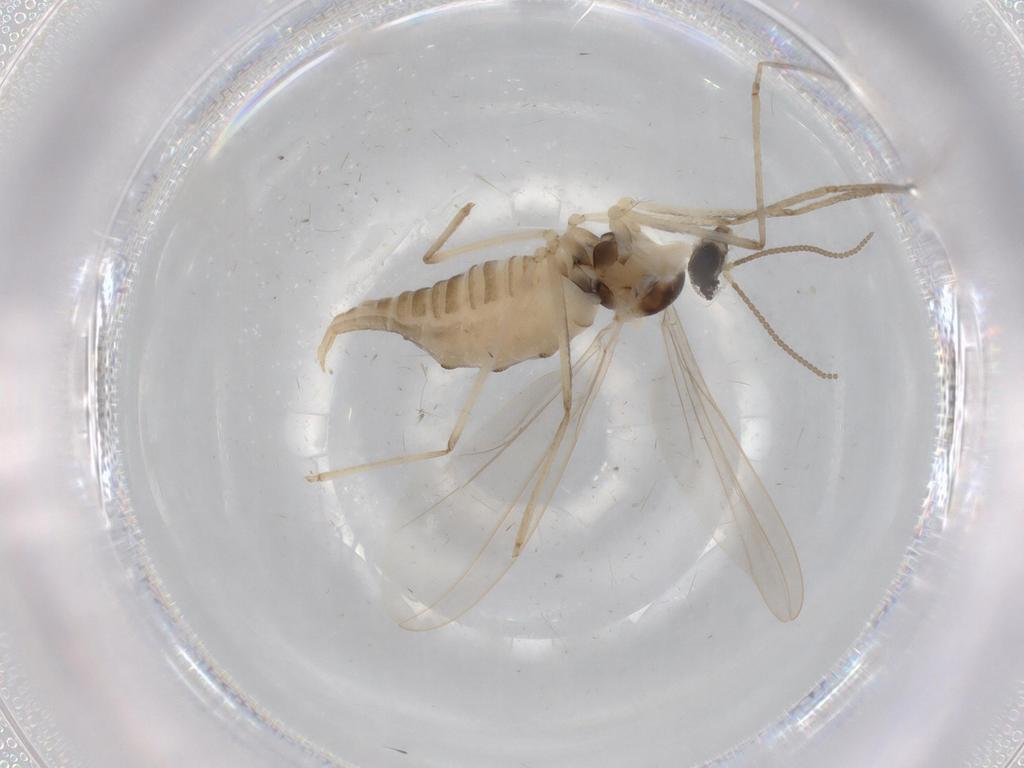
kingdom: Animalia
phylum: Arthropoda
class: Insecta
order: Diptera
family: Cecidomyiidae
